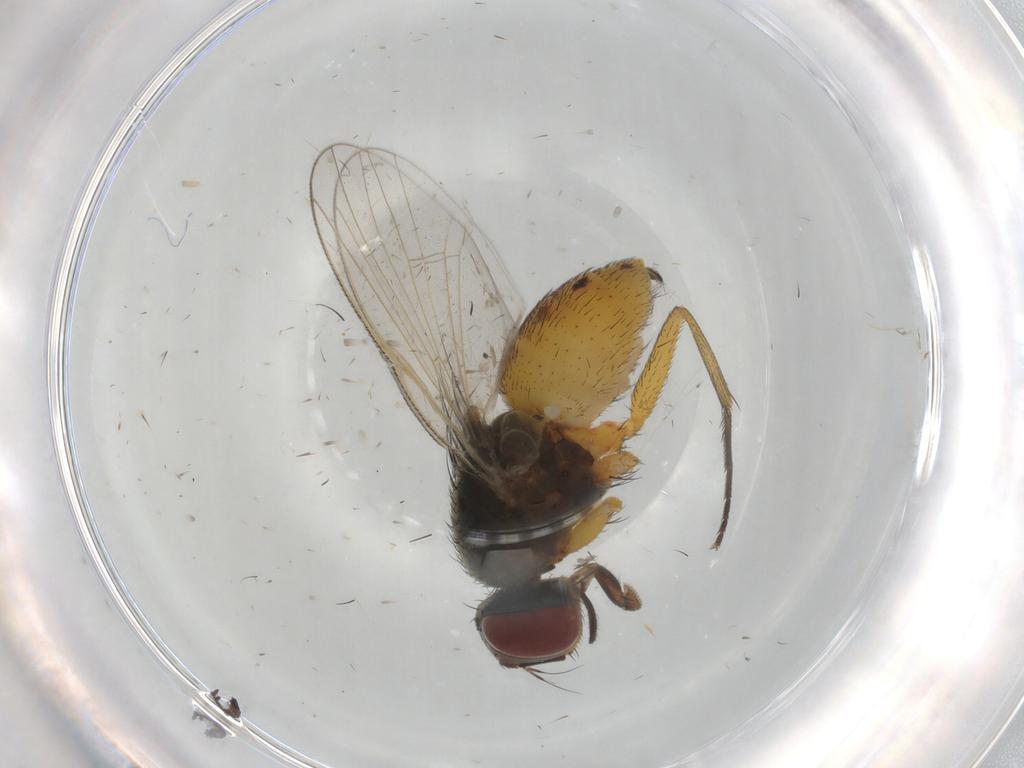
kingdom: Animalia
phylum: Arthropoda
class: Insecta
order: Diptera
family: Muscidae
